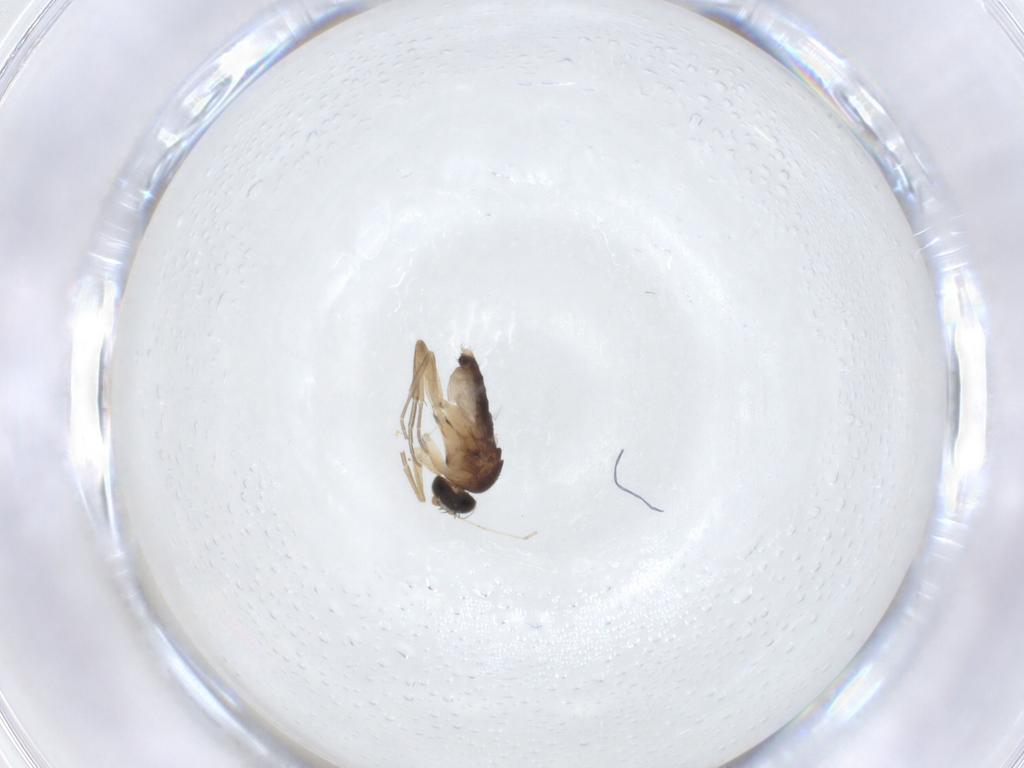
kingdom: Animalia
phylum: Arthropoda
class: Insecta
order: Diptera
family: Phoridae
